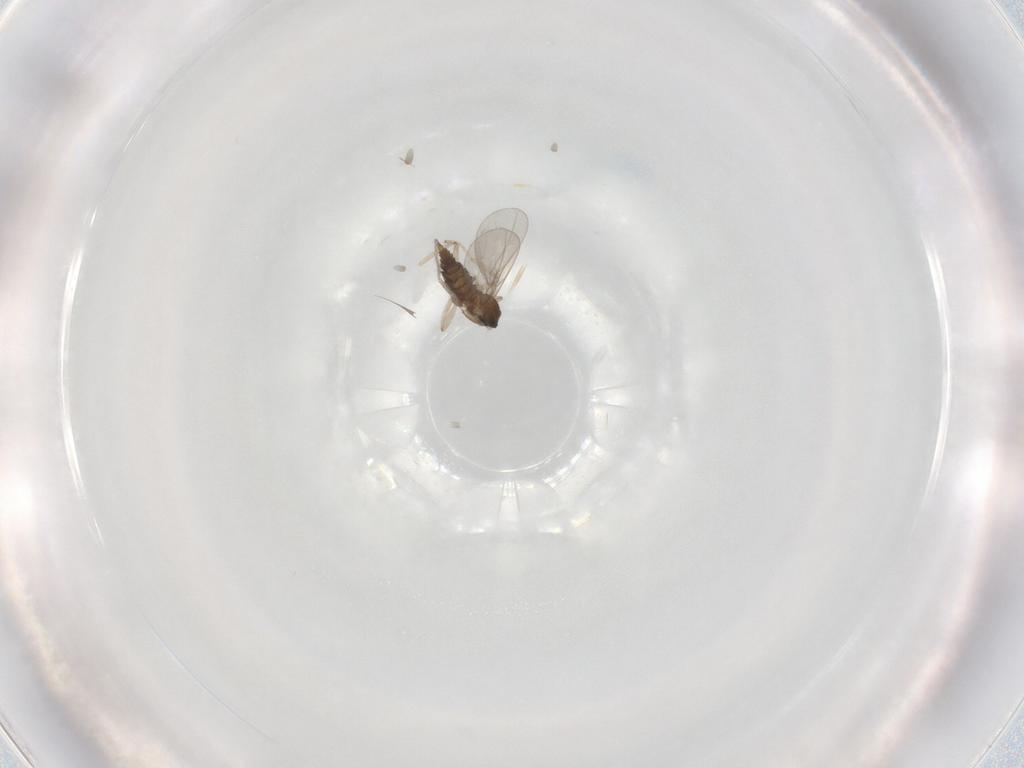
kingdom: Animalia
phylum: Arthropoda
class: Insecta
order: Diptera
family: Cecidomyiidae
